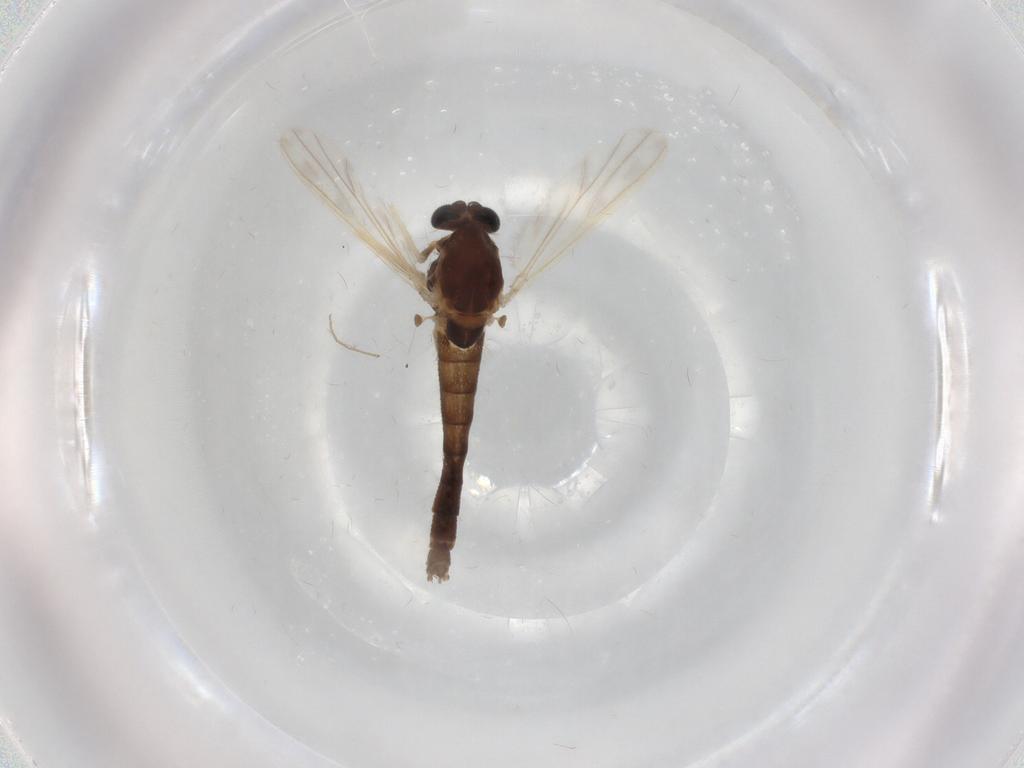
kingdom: Animalia
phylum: Arthropoda
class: Insecta
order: Diptera
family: Chironomidae
